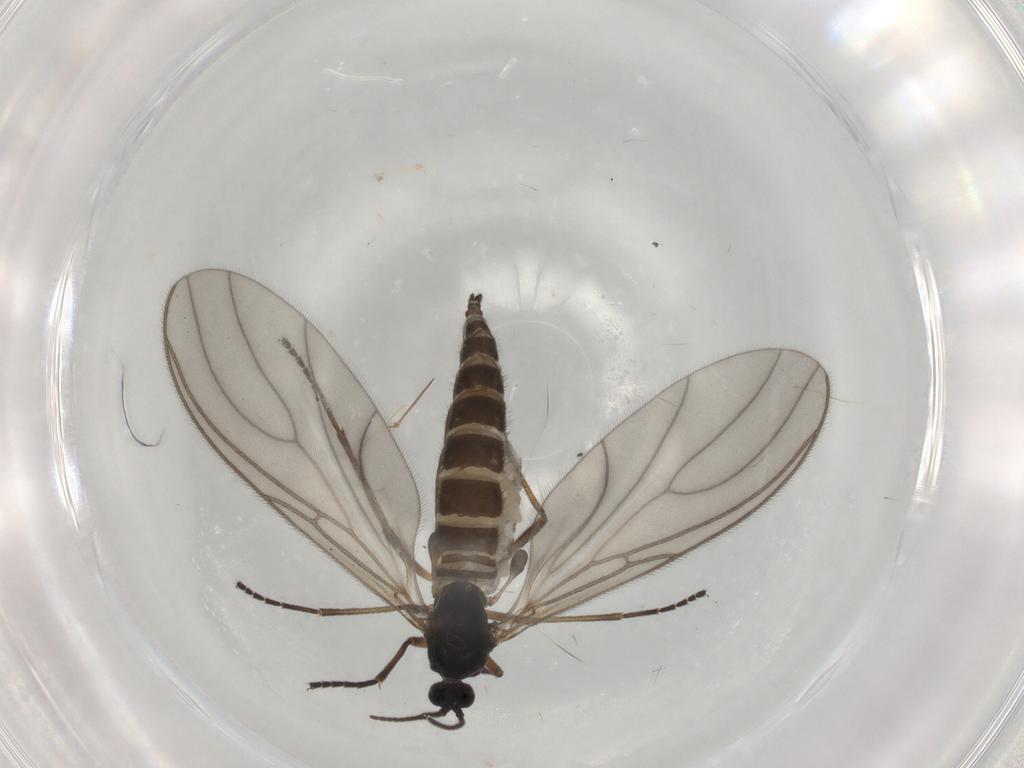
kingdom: Animalia
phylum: Arthropoda
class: Insecta
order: Diptera
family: Sciaridae
